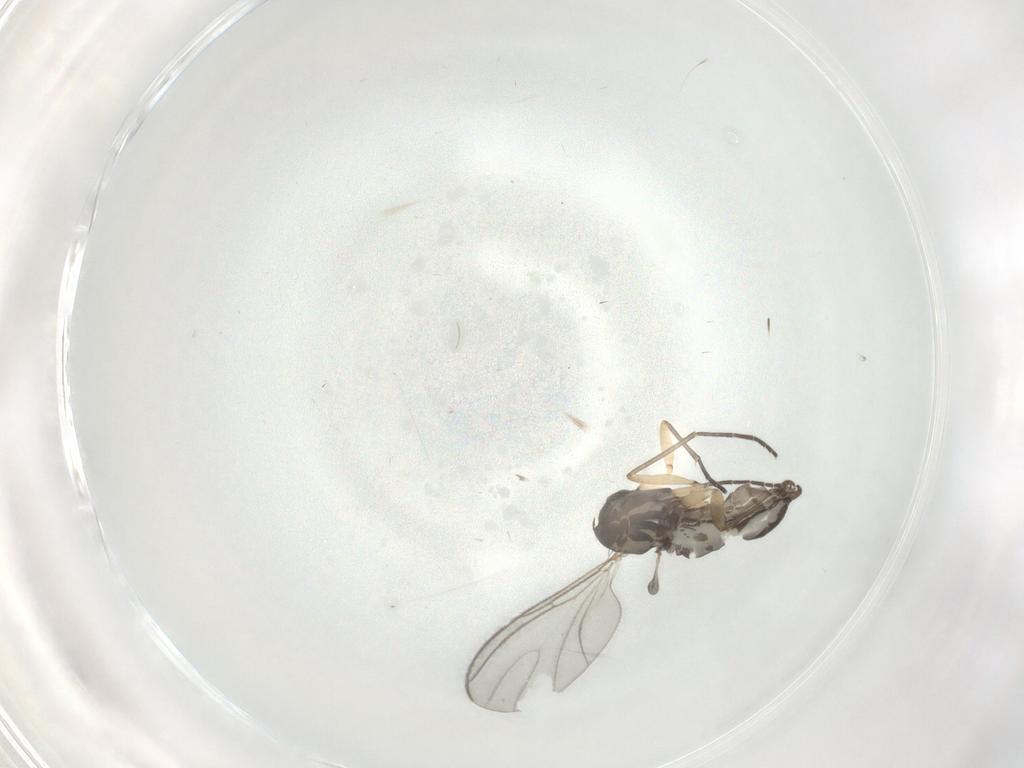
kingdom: Animalia
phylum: Arthropoda
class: Insecta
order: Diptera
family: Sciaridae
